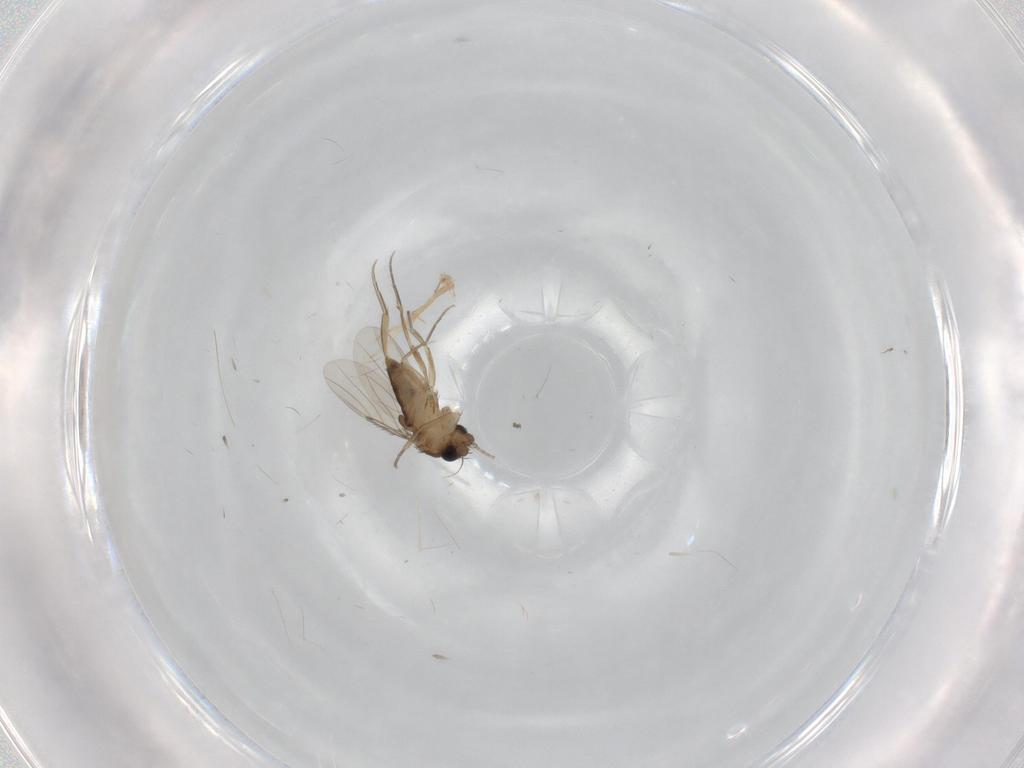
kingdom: Animalia
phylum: Arthropoda
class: Insecta
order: Diptera
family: Phoridae
